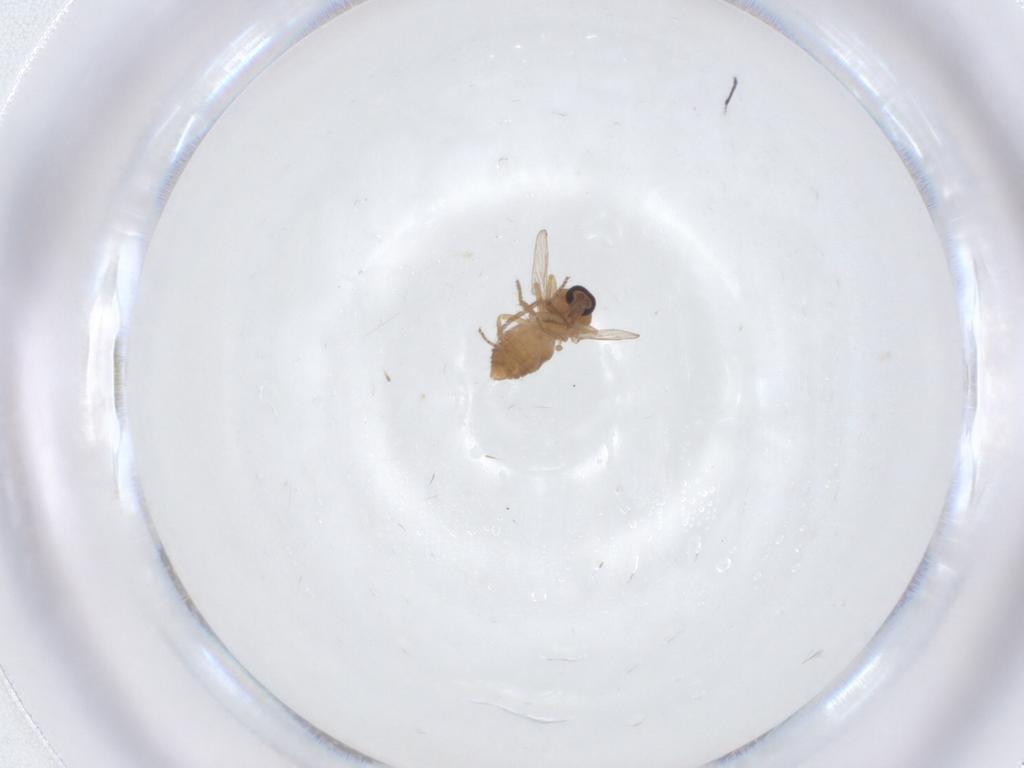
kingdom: Animalia
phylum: Arthropoda
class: Insecta
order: Diptera
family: Ceratopogonidae
